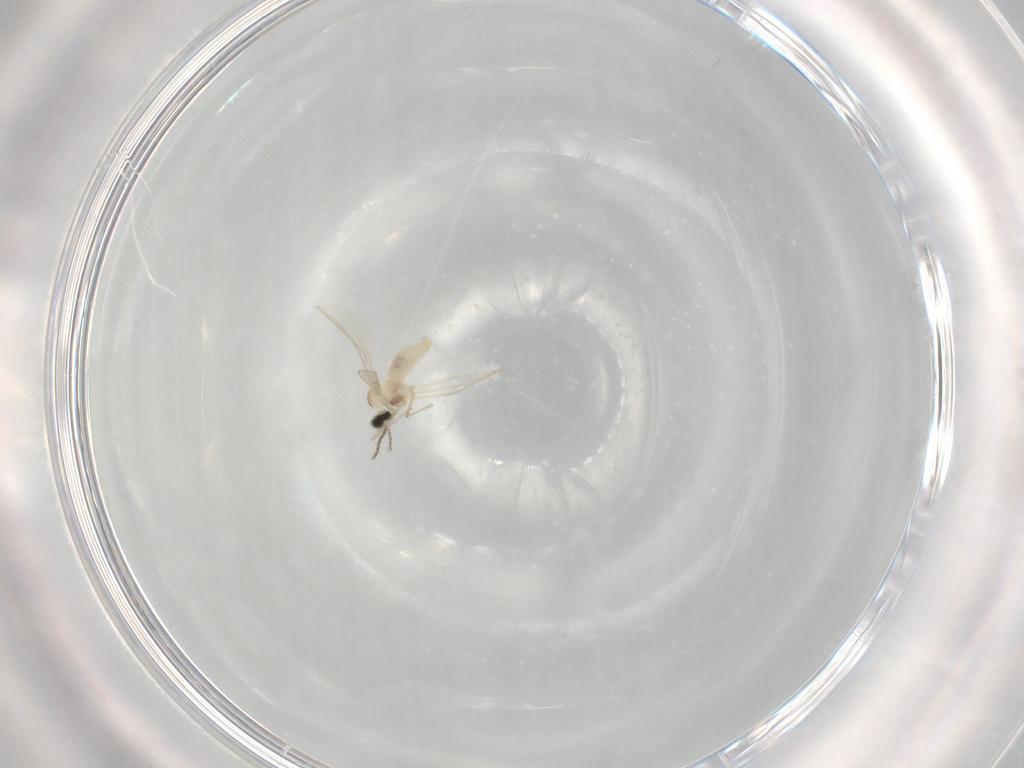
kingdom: Animalia
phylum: Arthropoda
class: Insecta
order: Diptera
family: Cecidomyiidae
